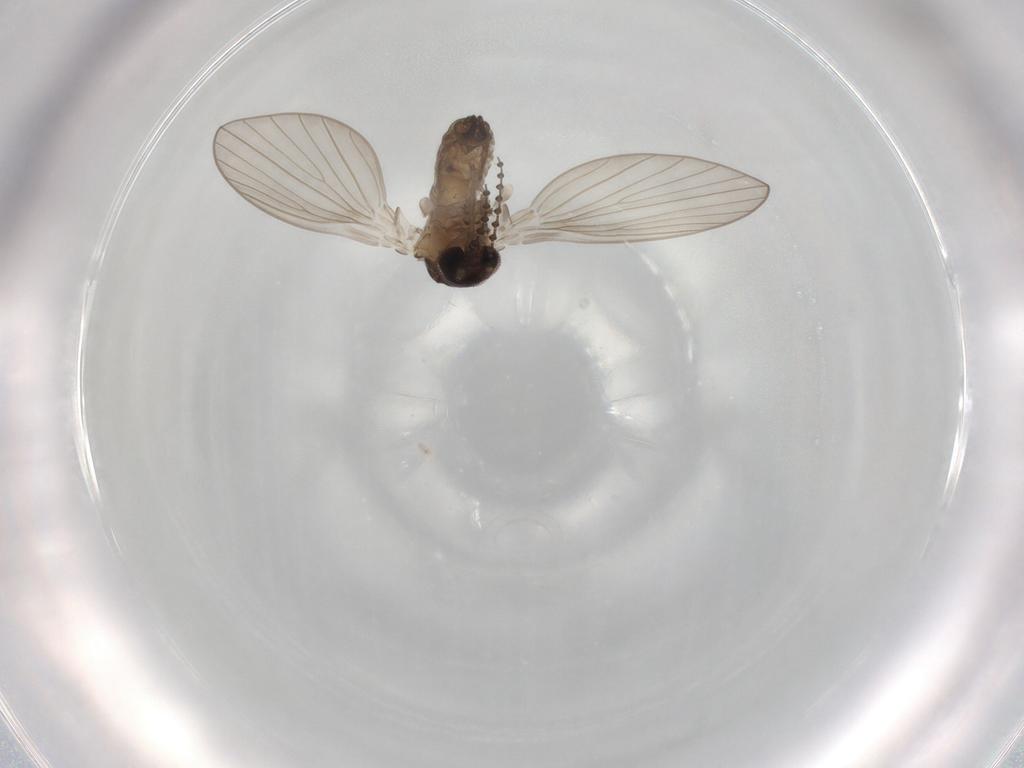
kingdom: Animalia
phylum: Arthropoda
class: Insecta
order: Diptera
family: Psychodidae
